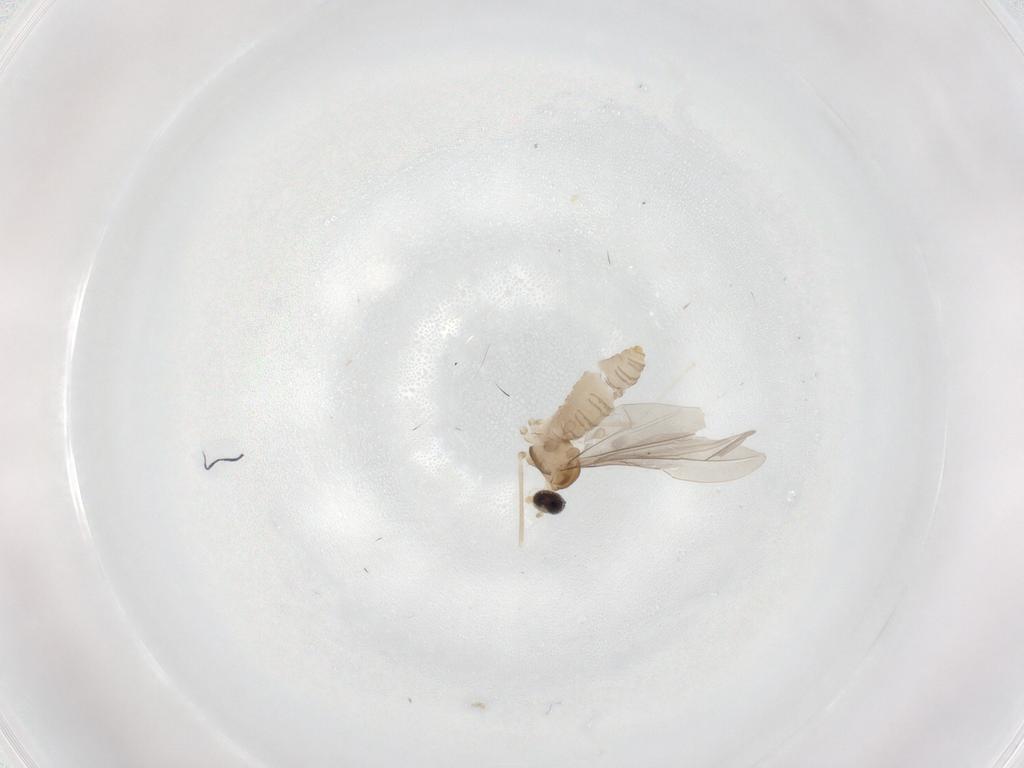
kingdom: Animalia
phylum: Arthropoda
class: Insecta
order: Diptera
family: Cecidomyiidae
